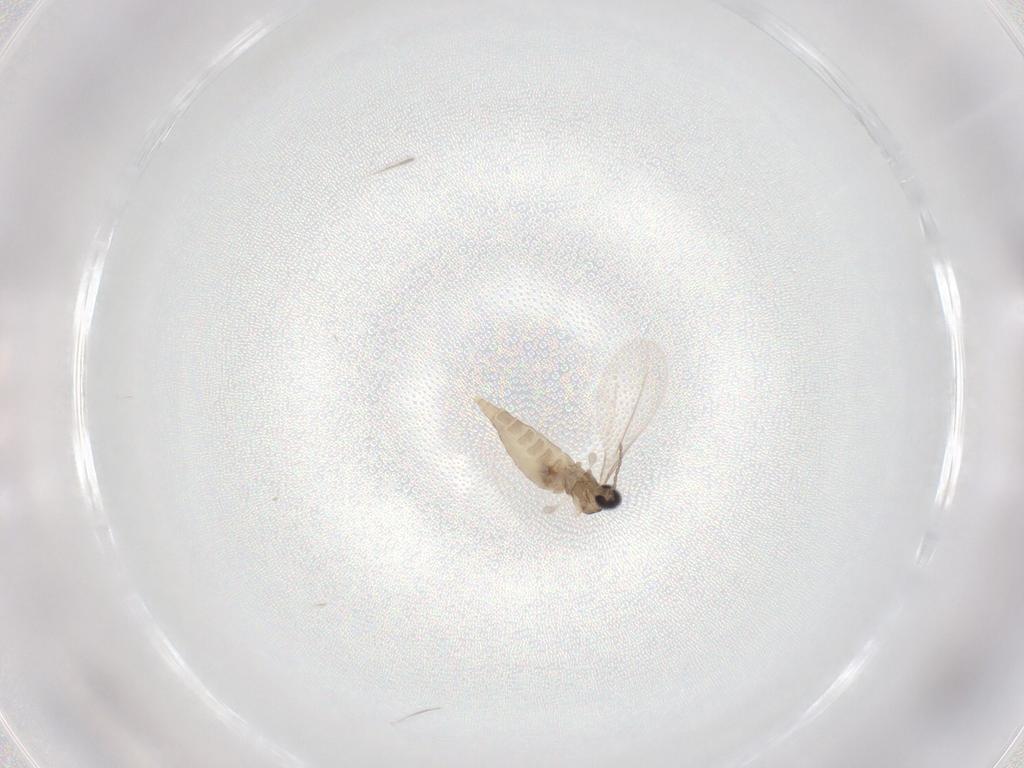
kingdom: Animalia
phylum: Arthropoda
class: Insecta
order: Diptera
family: Cecidomyiidae
